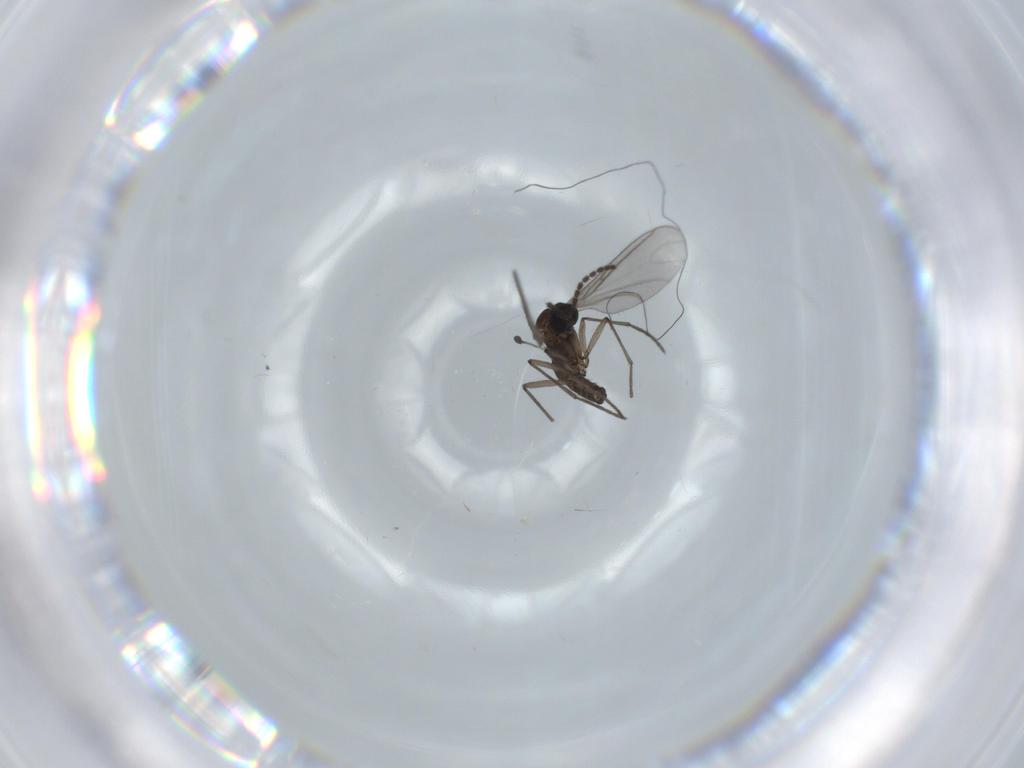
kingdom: Animalia
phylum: Arthropoda
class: Insecta
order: Diptera
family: Sciaridae
